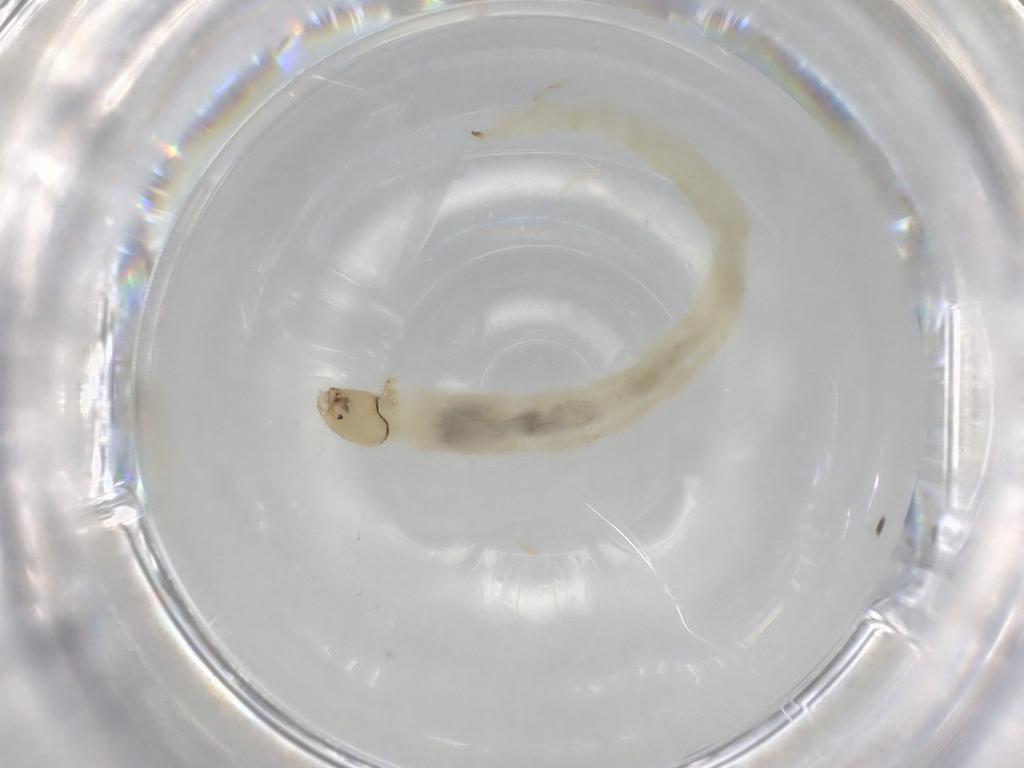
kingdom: Animalia
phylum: Arthropoda
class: Insecta
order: Diptera
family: Chironomidae
